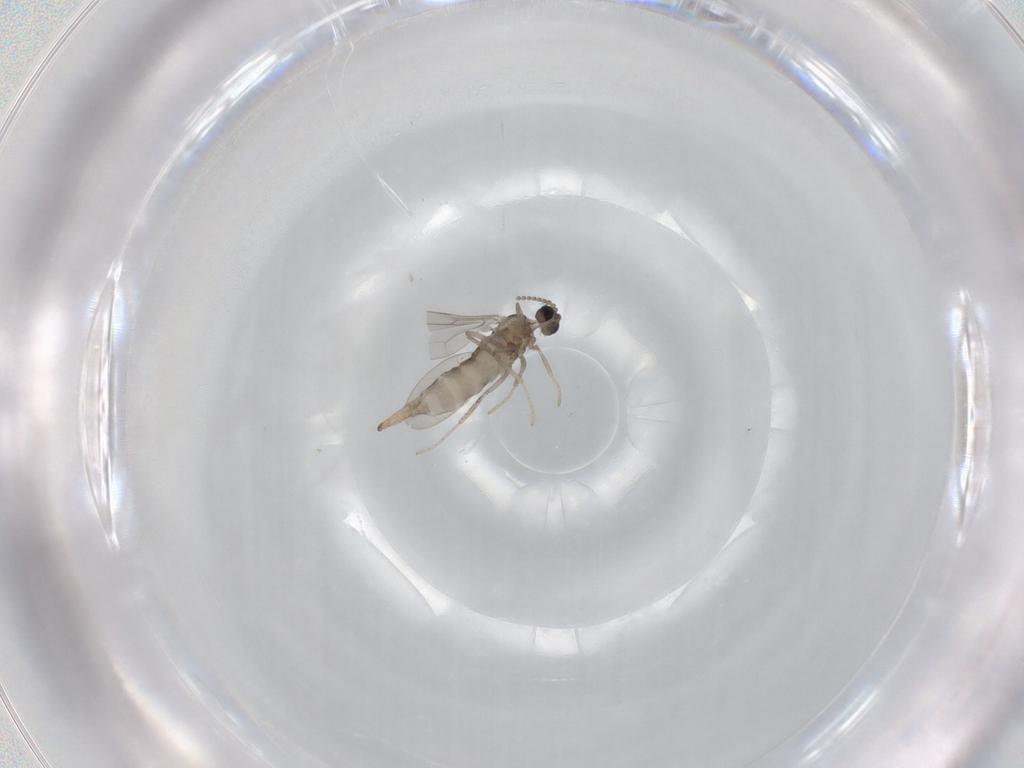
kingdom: Animalia
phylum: Arthropoda
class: Insecta
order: Diptera
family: Cecidomyiidae
